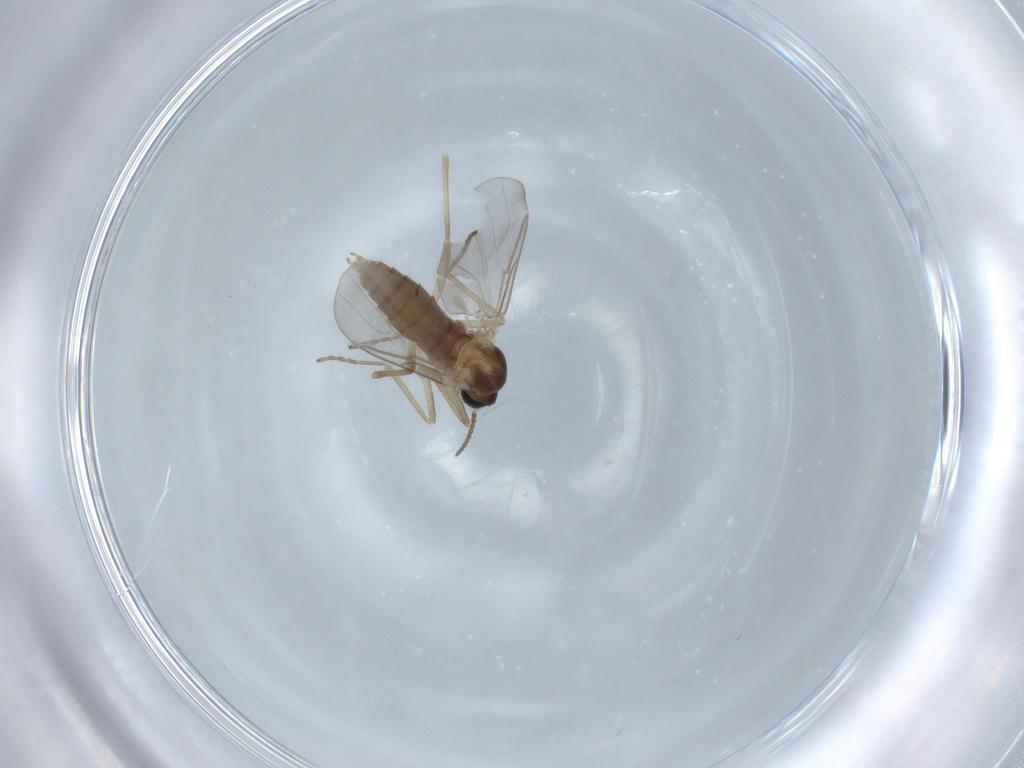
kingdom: Animalia
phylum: Arthropoda
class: Insecta
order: Diptera
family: Cecidomyiidae
